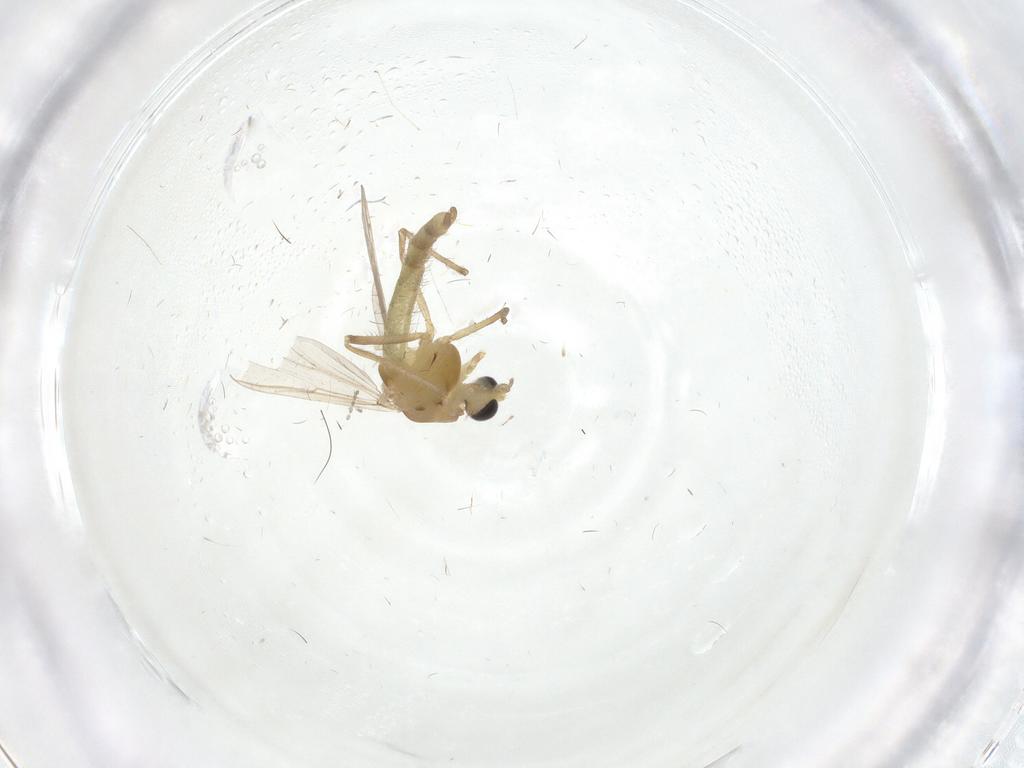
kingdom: Animalia
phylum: Arthropoda
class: Insecta
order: Diptera
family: Chironomidae
